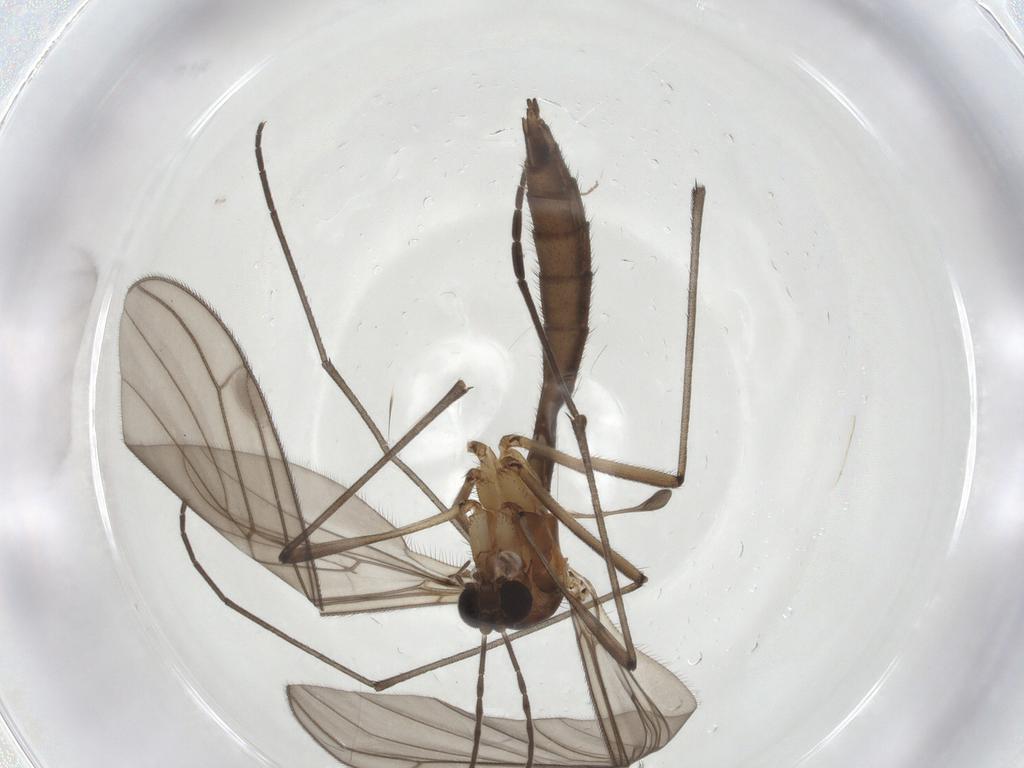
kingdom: Animalia
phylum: Arthropoda
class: Insecta
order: Diptera
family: Bolitophilidae
